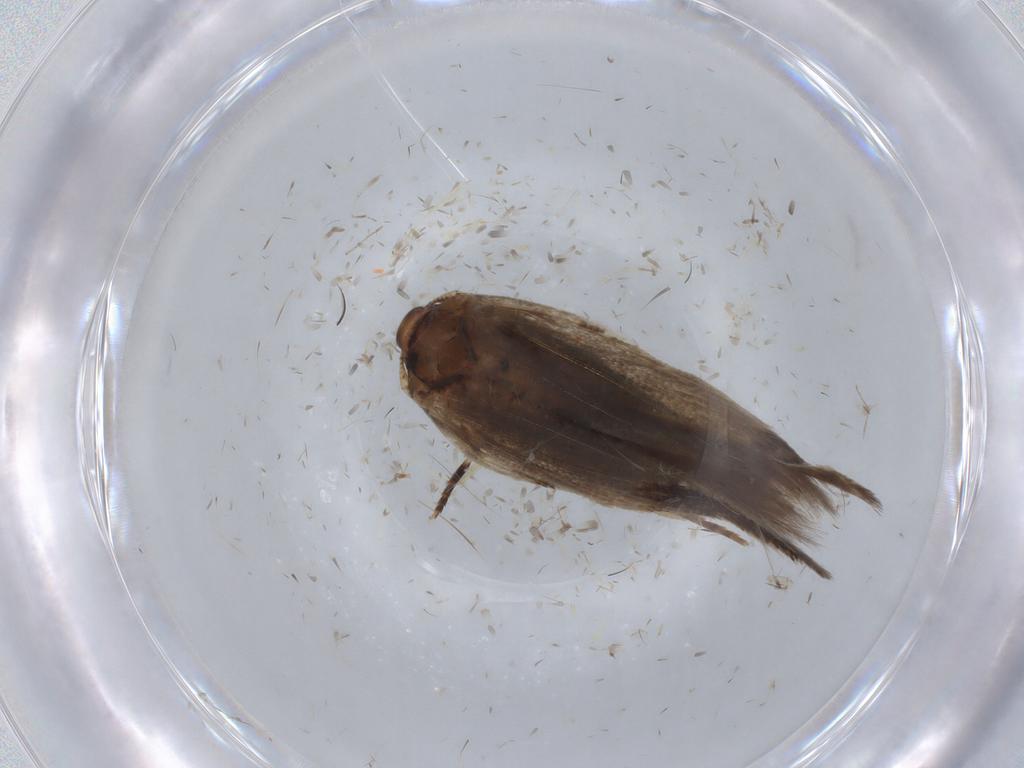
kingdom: Animalia
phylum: Arthropoda
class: Insecta
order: Lepidoptera
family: Cosmopterigidae
